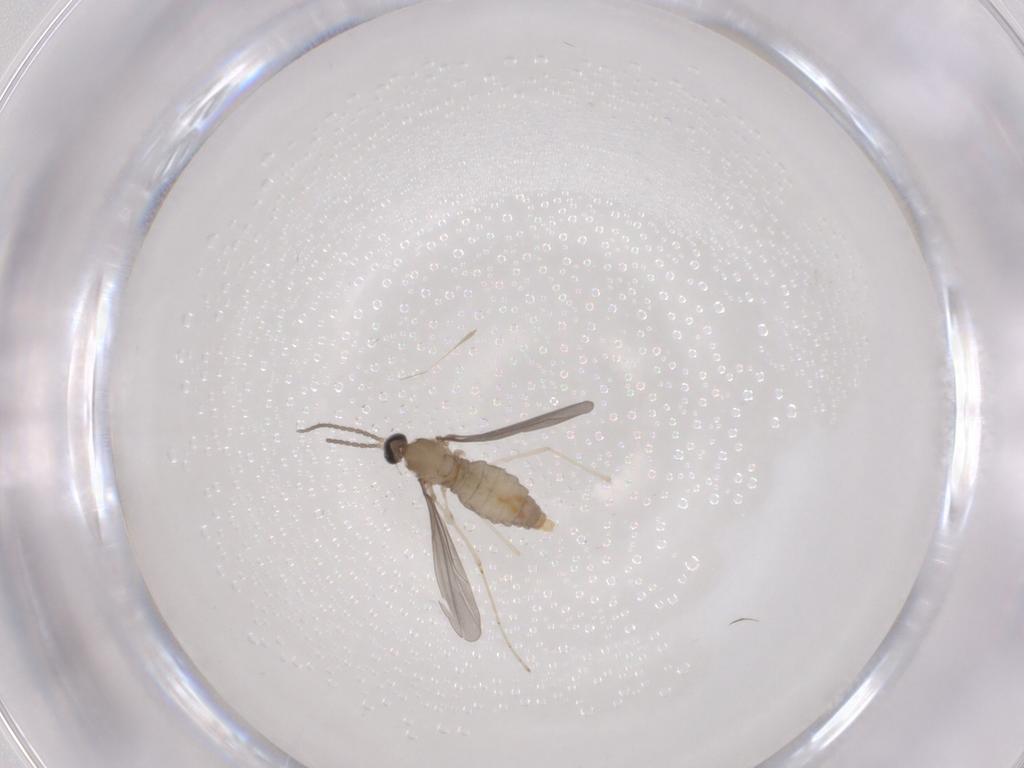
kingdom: Animalia
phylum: Arthropoda
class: Insecta
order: Diptera
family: Cecidomyiidae
